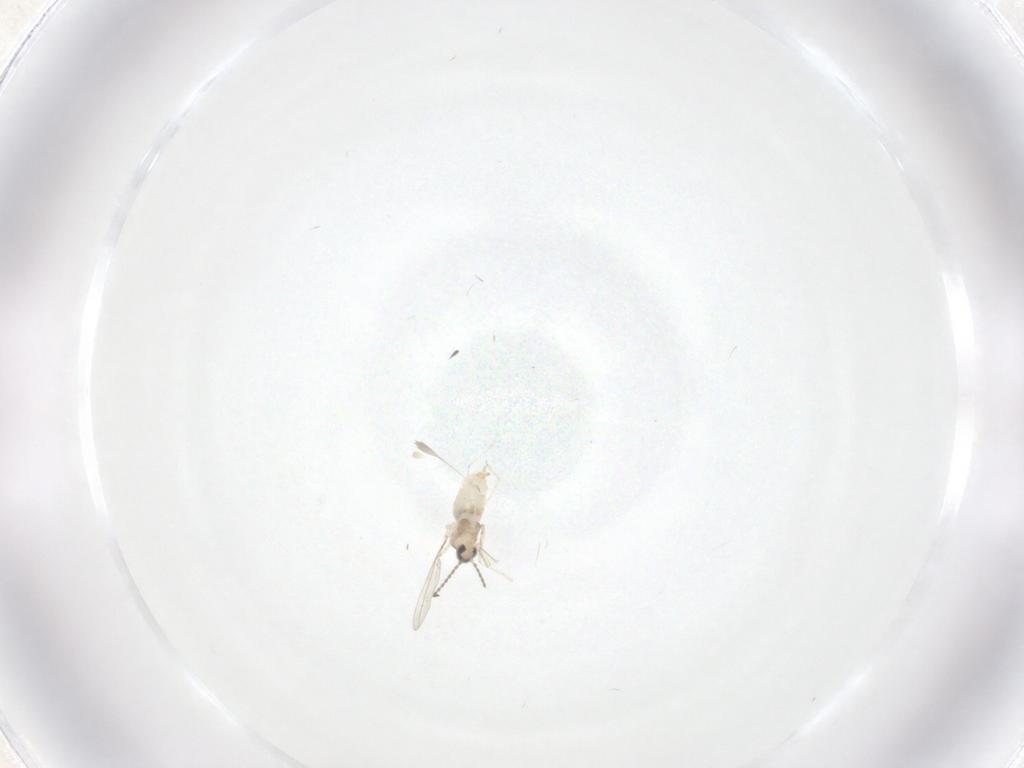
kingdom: Animalia
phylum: Arthropoda
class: Insecta
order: Diptera
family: Cecidomyiidae
